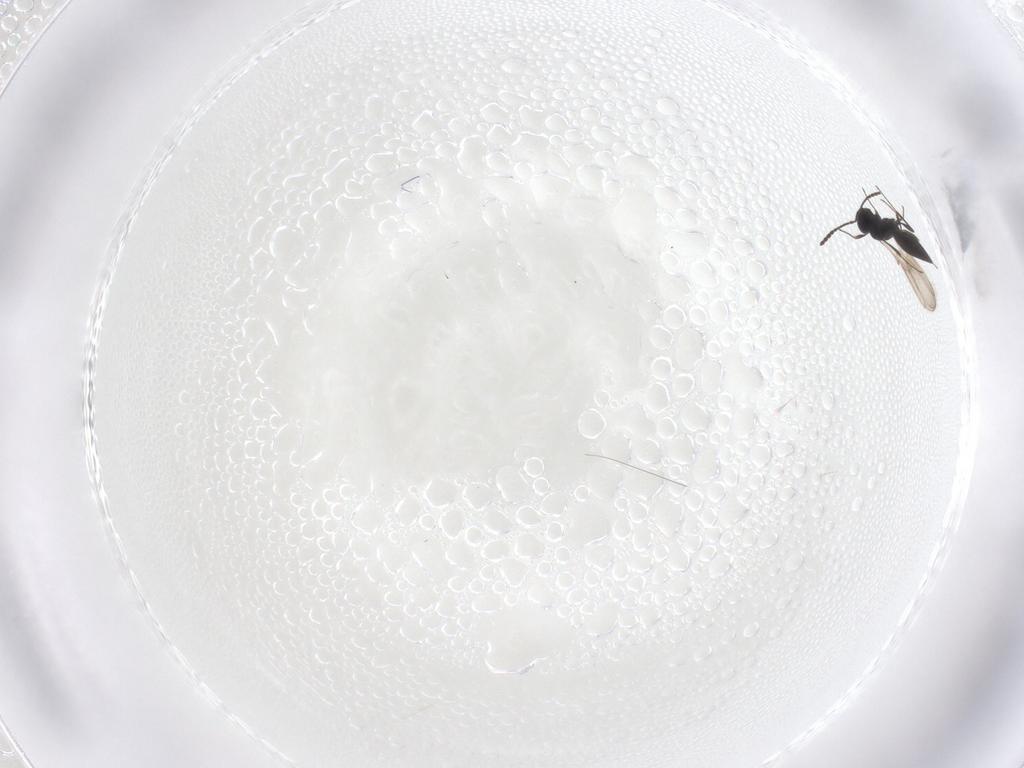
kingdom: Animalia
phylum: Arthropoda
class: Insecta
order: Hymenoptera
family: Scelionidae
